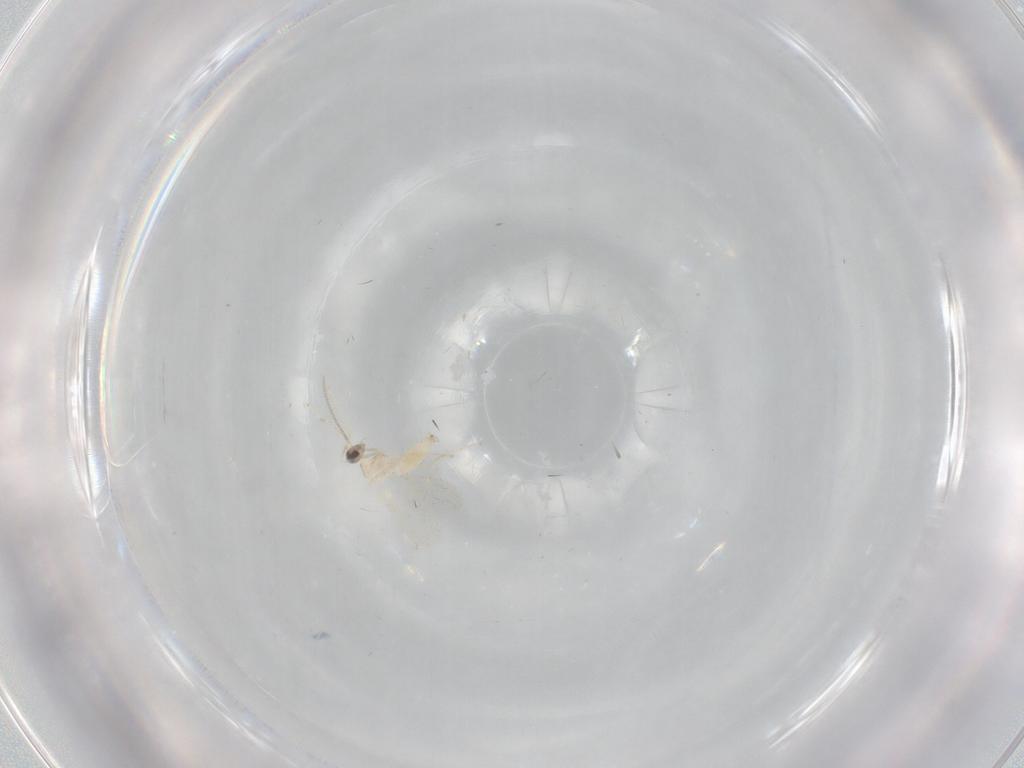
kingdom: Animalia
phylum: Arthropoda
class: Insecta
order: Diptera
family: Cecidomyiidae
